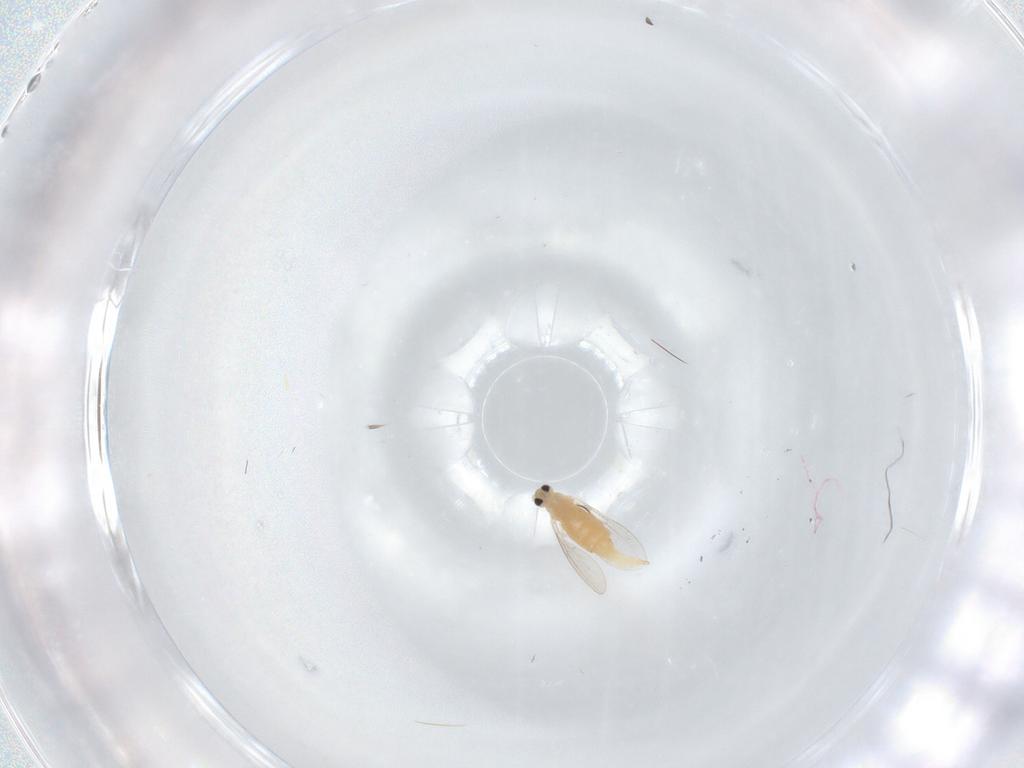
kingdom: Animalia
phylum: Arthropoda
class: Insecta
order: Diptera
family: Cecidomyiidae
